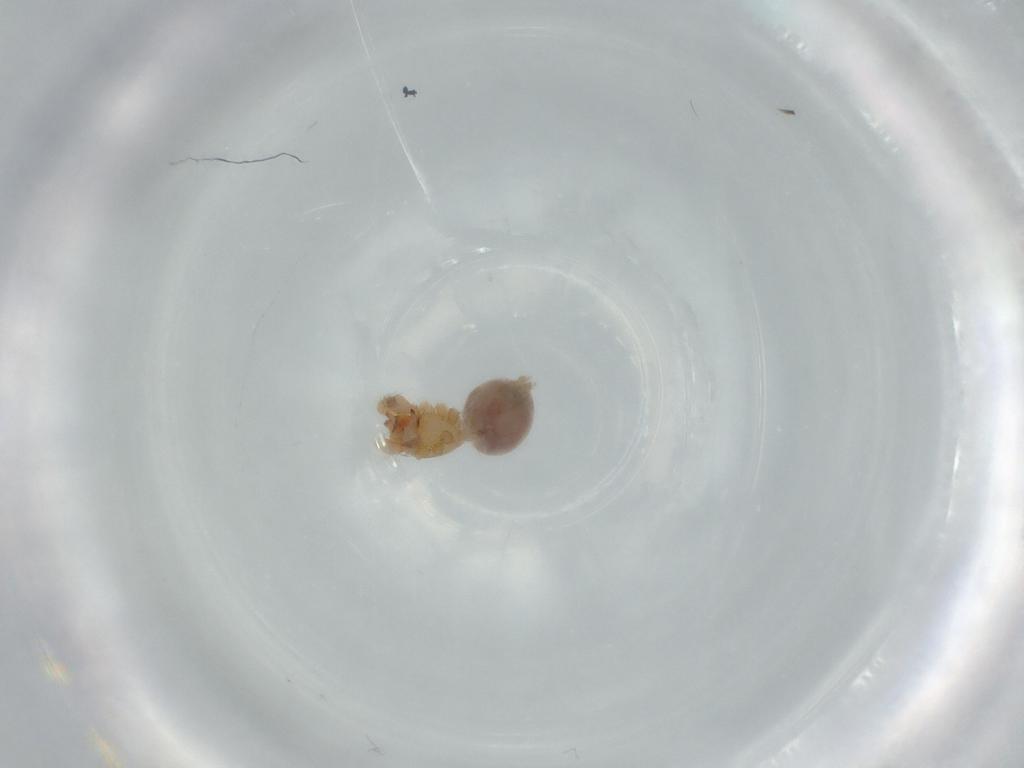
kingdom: Animalia
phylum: Arthropoda
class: Arachnida
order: Araneae
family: Oonopidae
